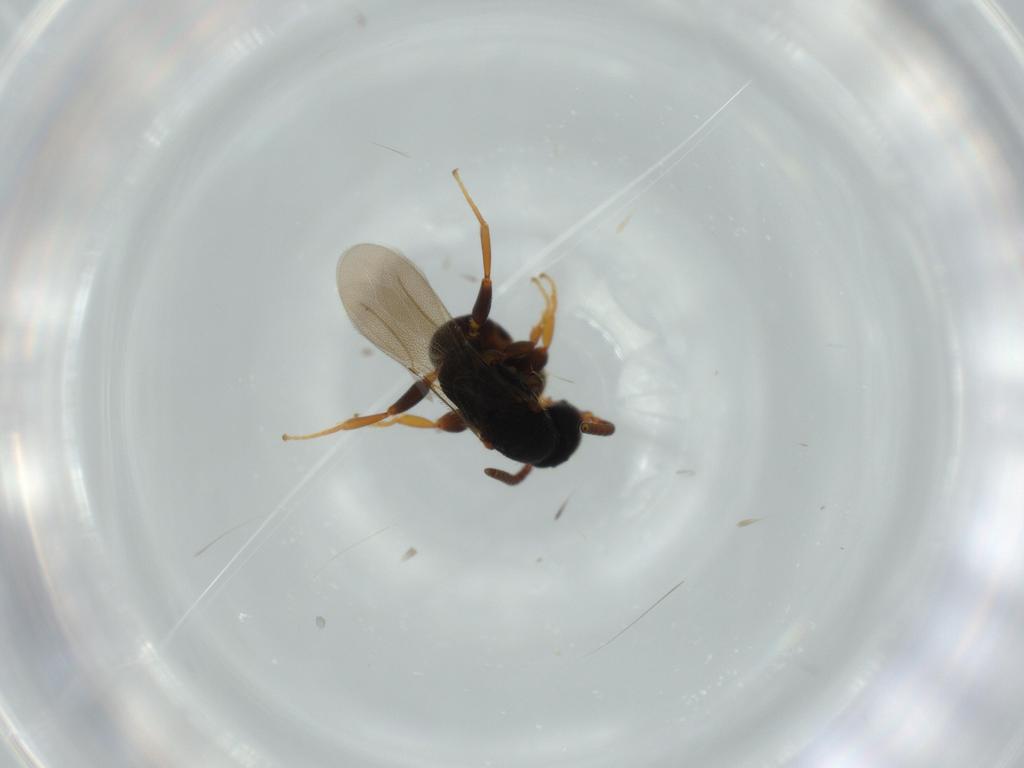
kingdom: Animalia
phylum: Arthropoda
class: Insecta
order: Hymenoptera
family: Bethylidae
